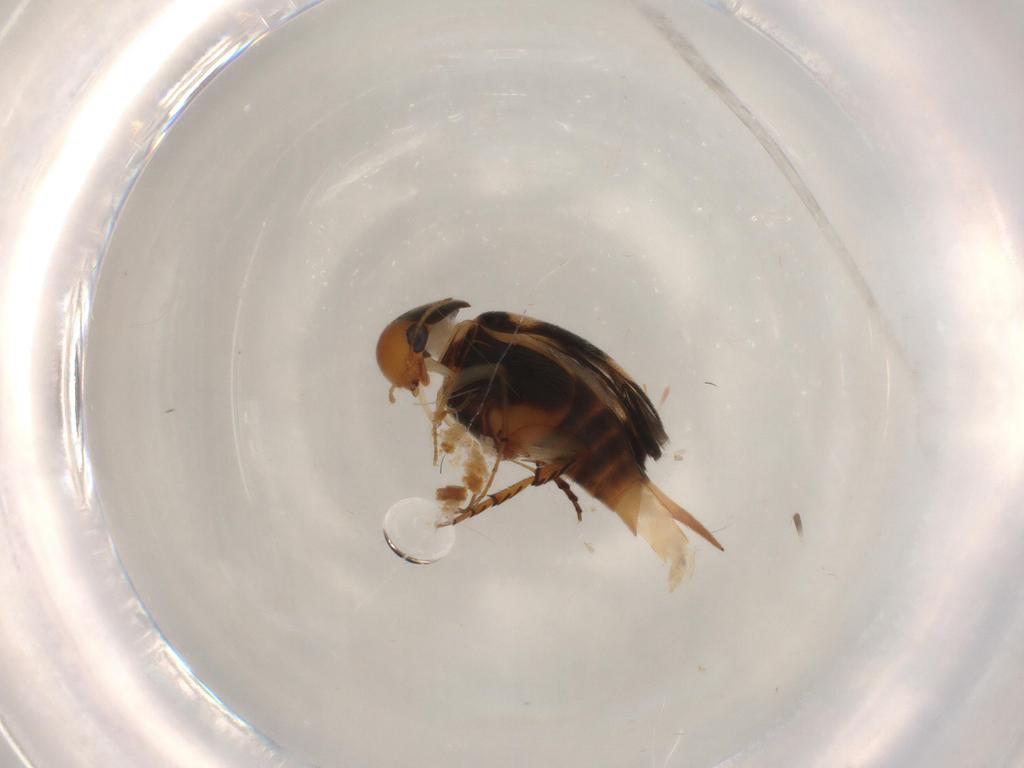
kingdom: Animalia
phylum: Arthropoda
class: Insecta
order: Coleoptera
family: Mordellidae
